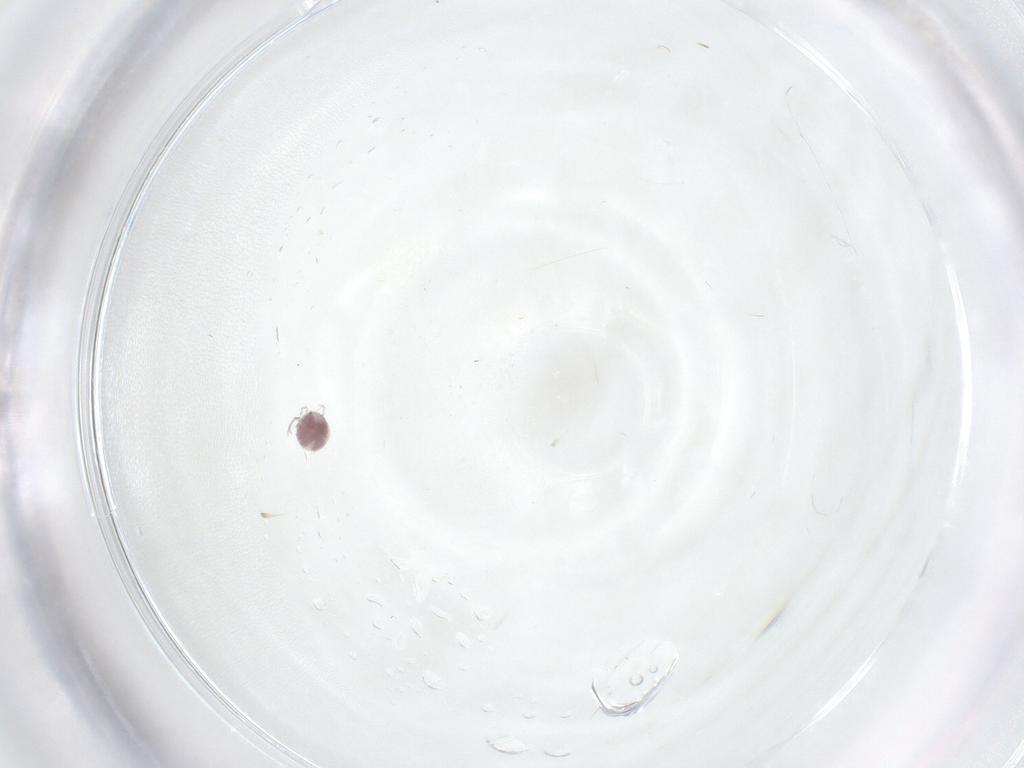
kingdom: Animalia
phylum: Arthropoda
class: Arachnida
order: Trombidiformes
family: Pionidae
